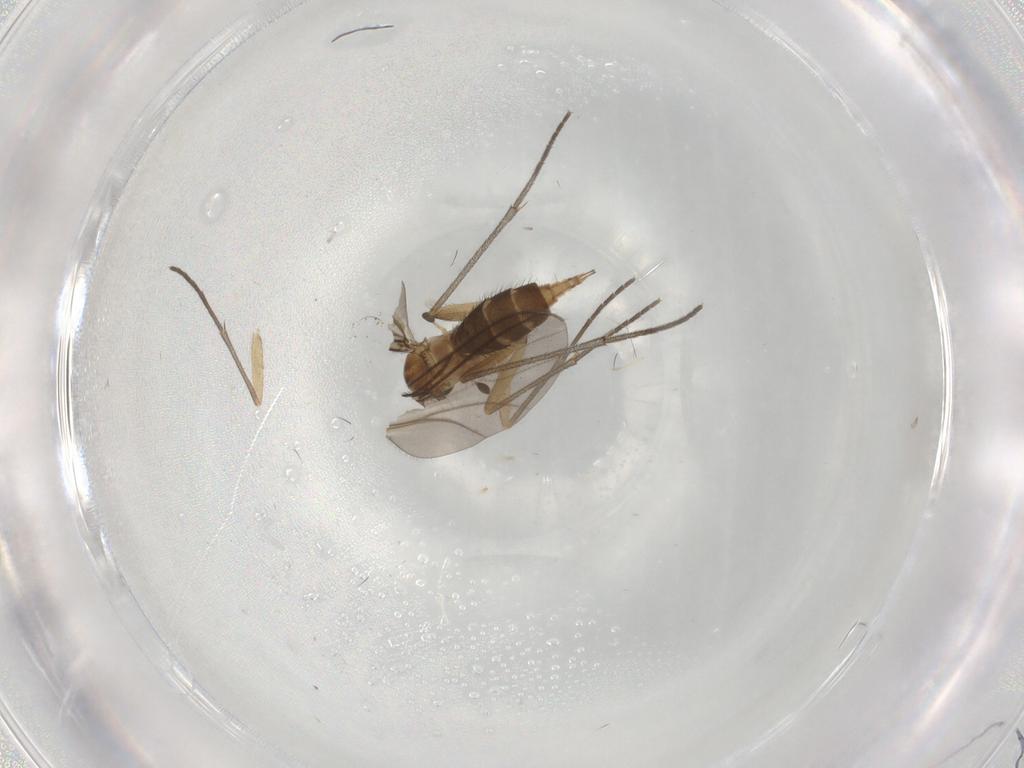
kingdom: Animalia
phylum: Arthropoda
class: Insecta
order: Diptera
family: Sciaridae
